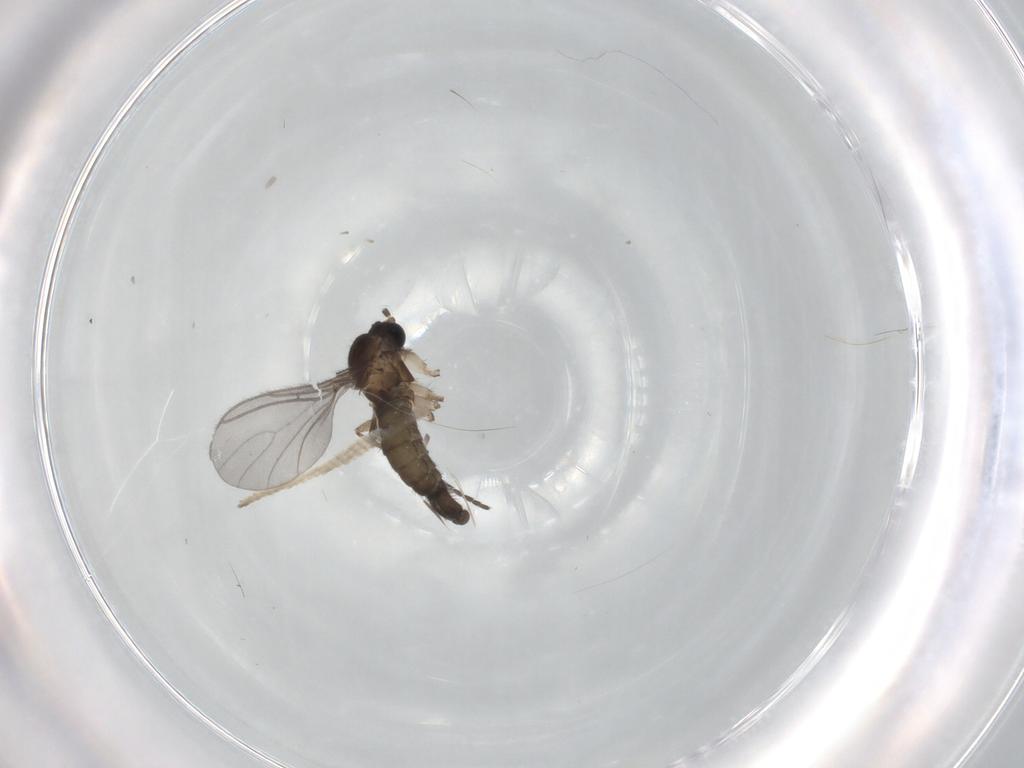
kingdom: Animalia
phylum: Arthropoda
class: Insecta
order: Diptera
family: Sciaridae
